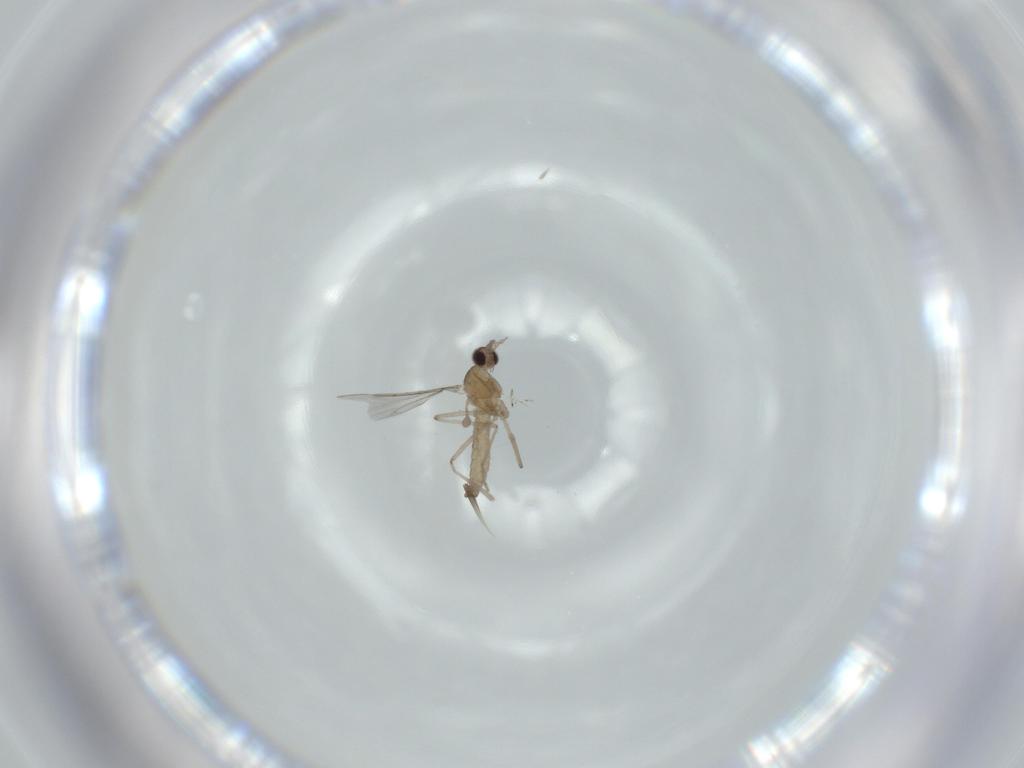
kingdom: Animalia
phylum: Arthropoda
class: Insecta
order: Diptera
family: Cecidomyiidae
